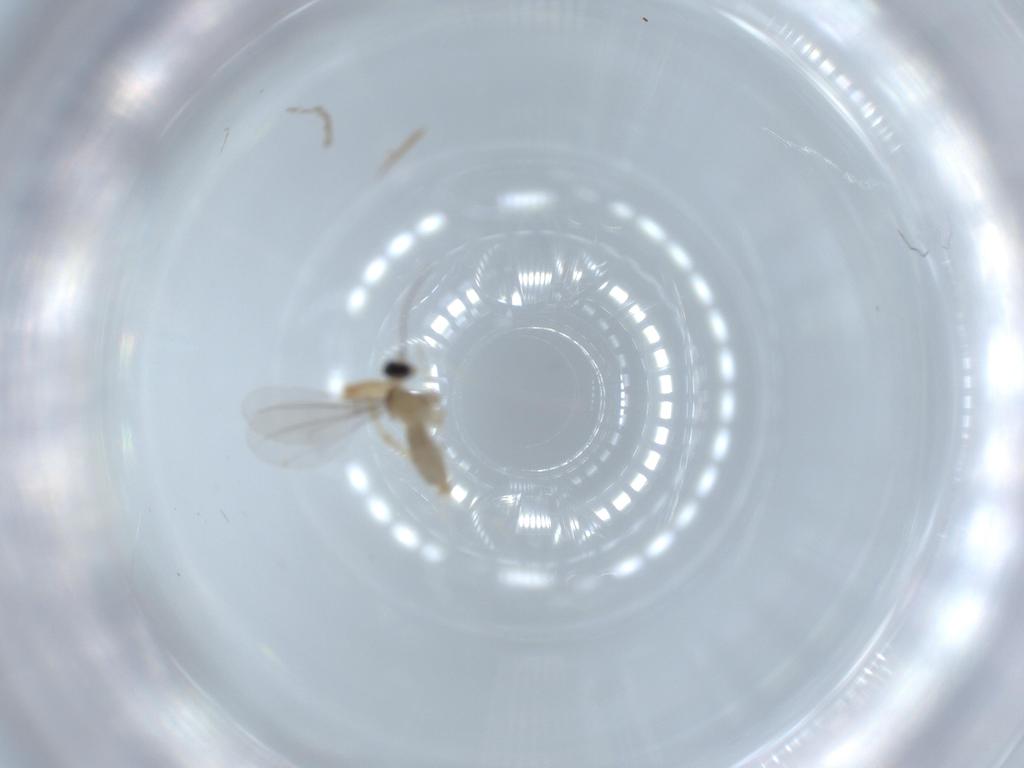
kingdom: Animalia
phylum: Arthropoda
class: Insecta
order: Diptera
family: Cecidomyiidae
